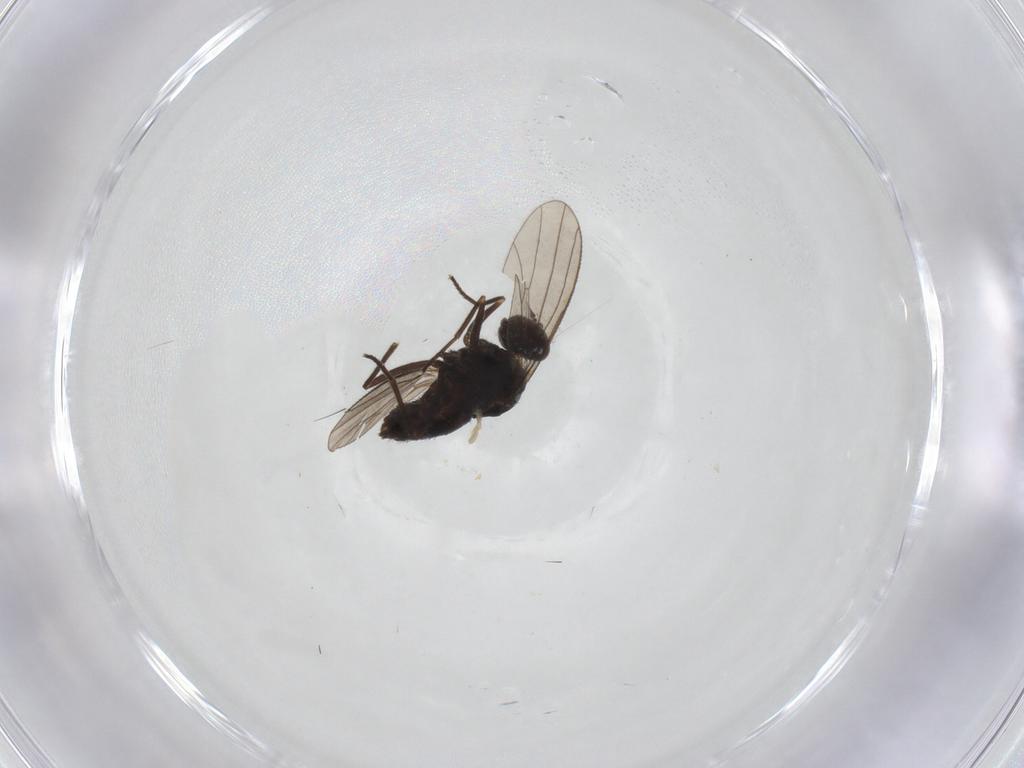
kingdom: Animalia
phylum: Arthropoda
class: Insecta
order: Diptera
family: Dolichopodidae
